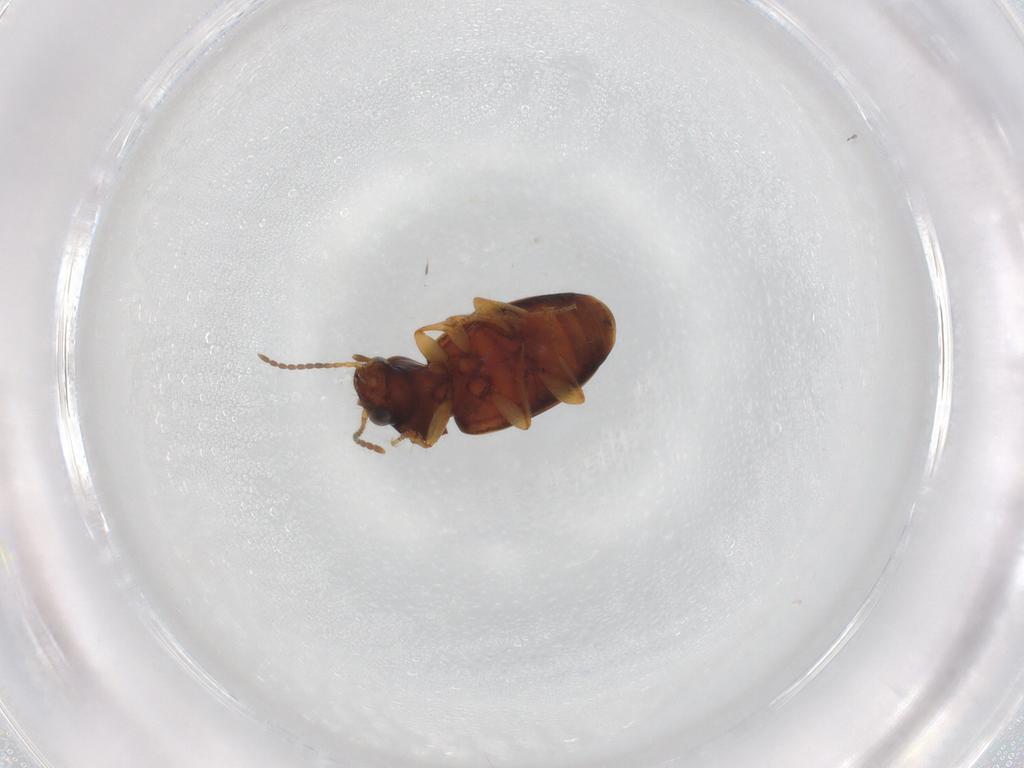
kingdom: Animalia
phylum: Arthropoda
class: Insecta
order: Coleoptera
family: Carabidae
